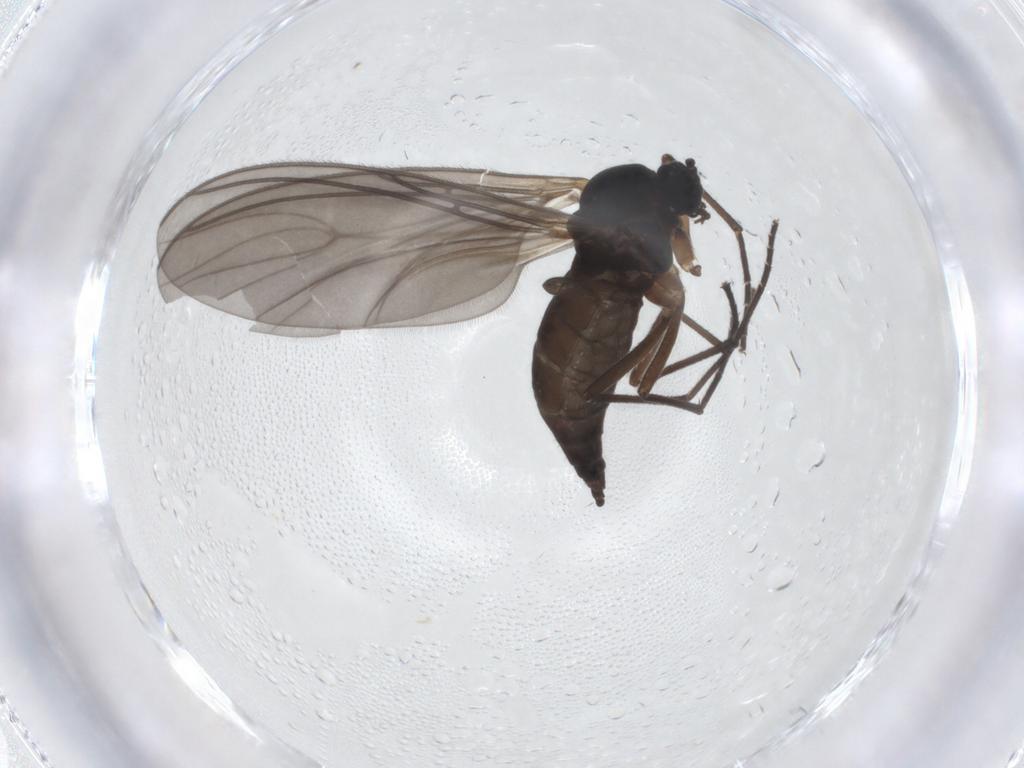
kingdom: Animalia
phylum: Arthropoda
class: Insecta
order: Diptera
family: Sciaridae
